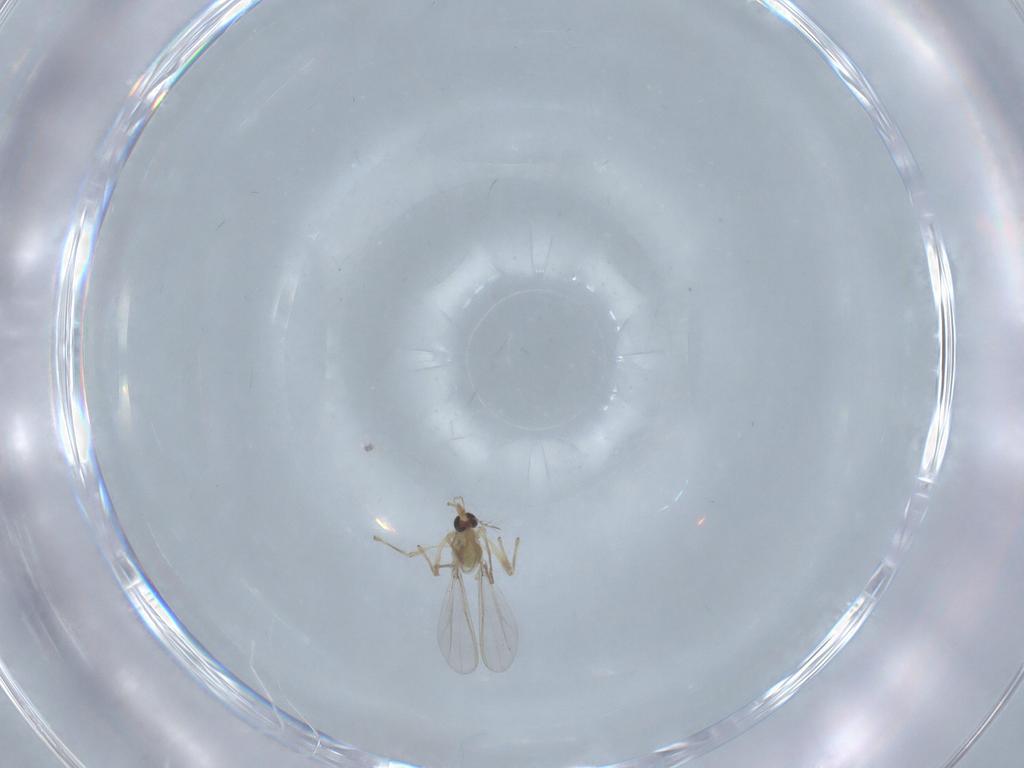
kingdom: Animalia
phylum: Arthropoda
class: Insecta
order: Diptera
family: Chironomidae
